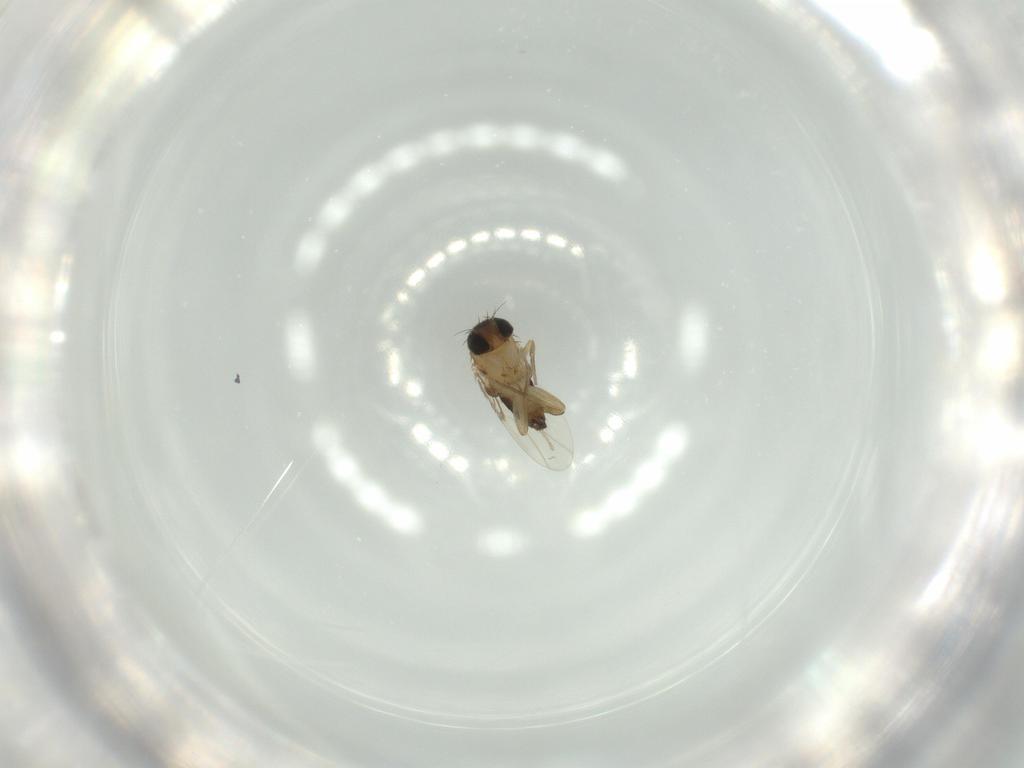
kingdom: Animalia
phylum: Arthropoda
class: Insecta
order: Diptera
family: Phoridae
